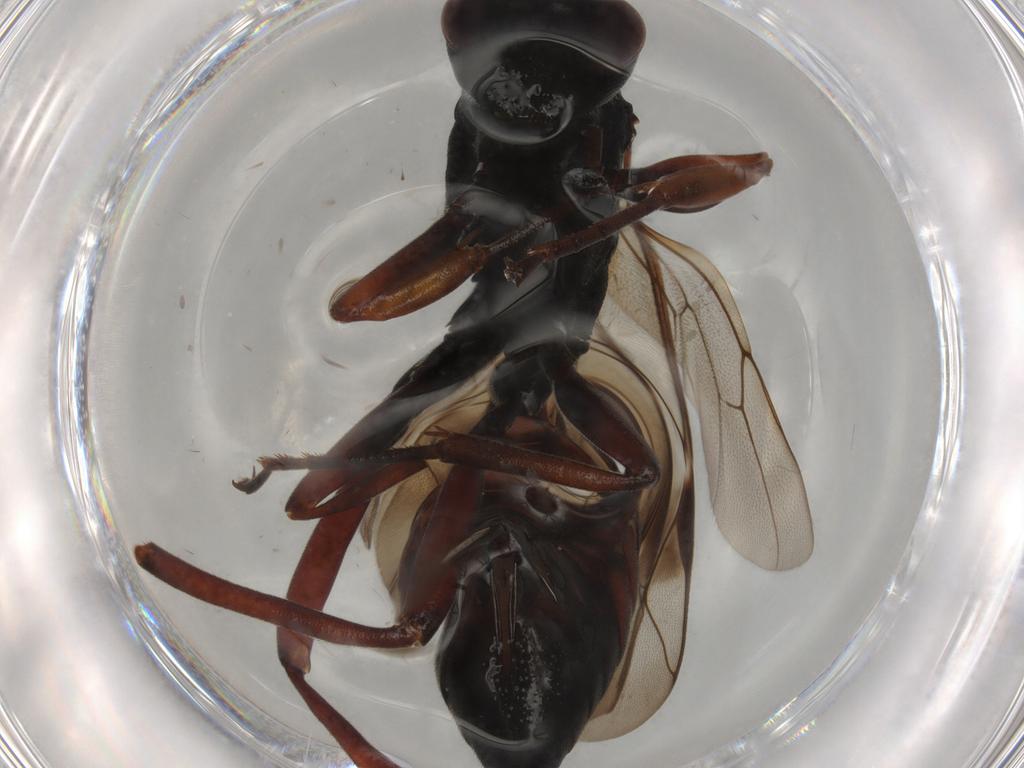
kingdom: Animalia
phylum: Arthropoda
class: Insecta
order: Hymenoptera
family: Ichneumonidae
